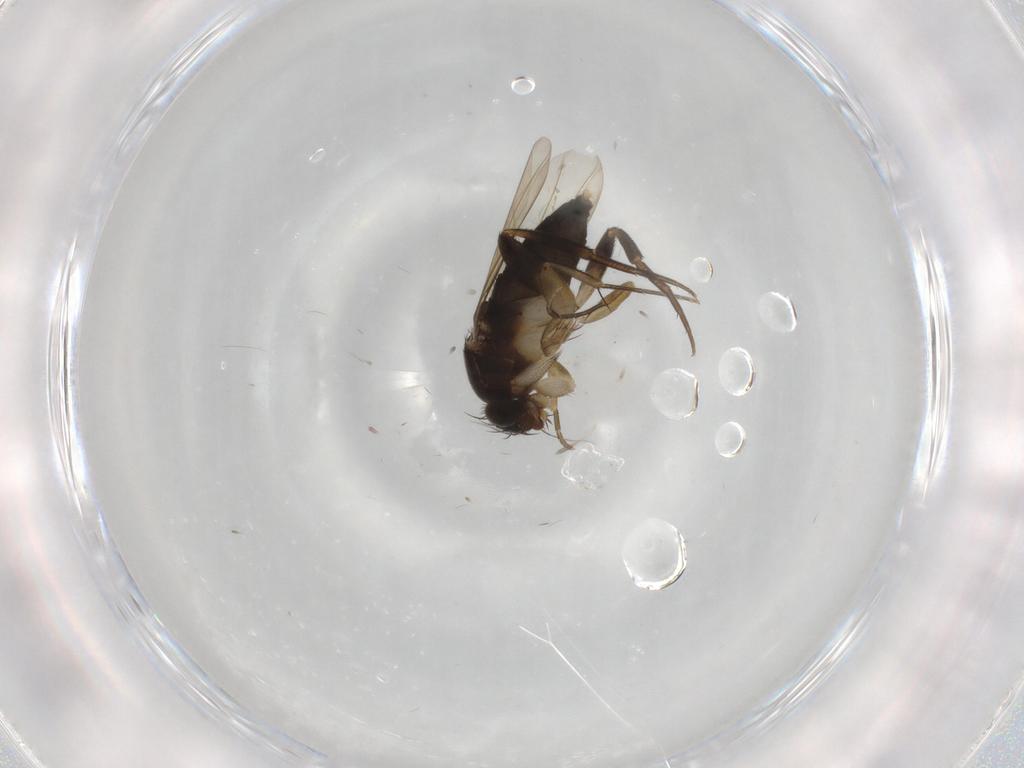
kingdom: Animalia
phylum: Arthropoda
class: Insecta
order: Diptera
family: Phoridae
